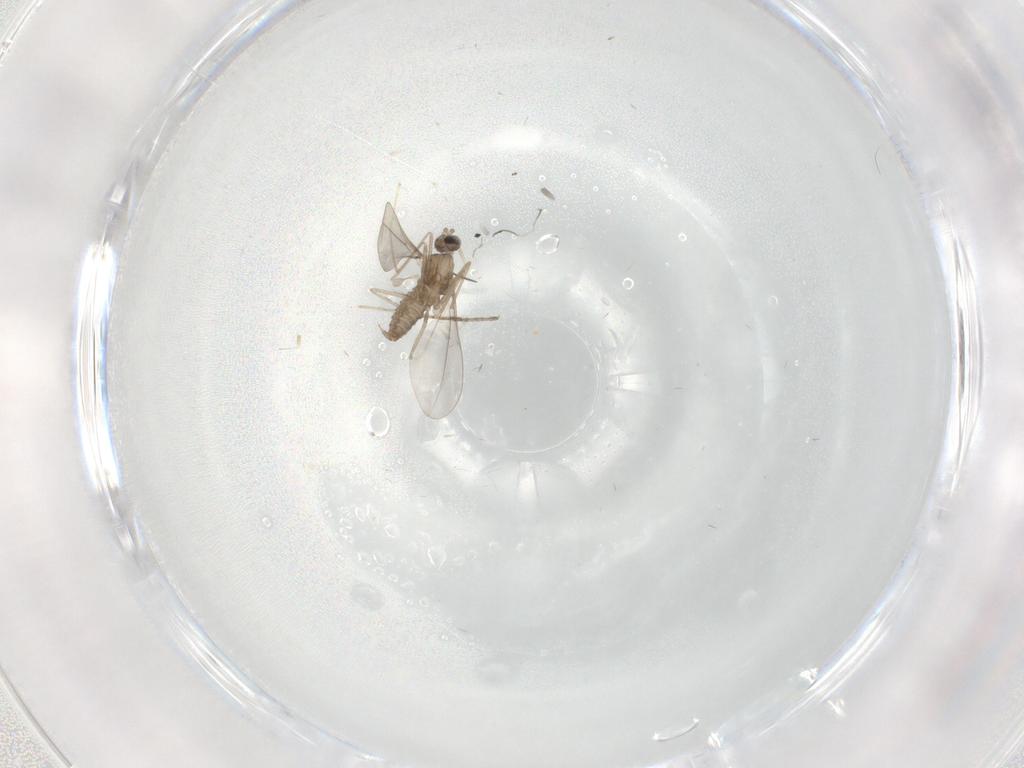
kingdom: Animalia
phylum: Arthropoda
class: Insecta
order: Diptera
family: Cecidomyiidae
